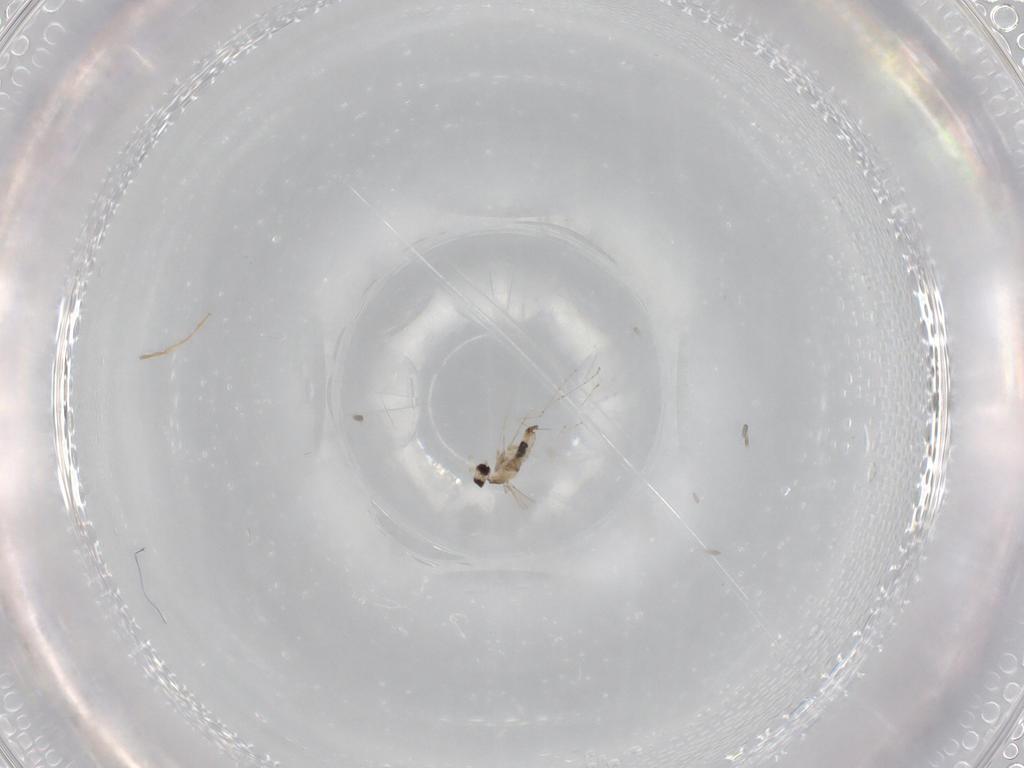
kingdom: Animalia
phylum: Arthropoda
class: Insecta
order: Diptera
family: Cecidomyiidae
